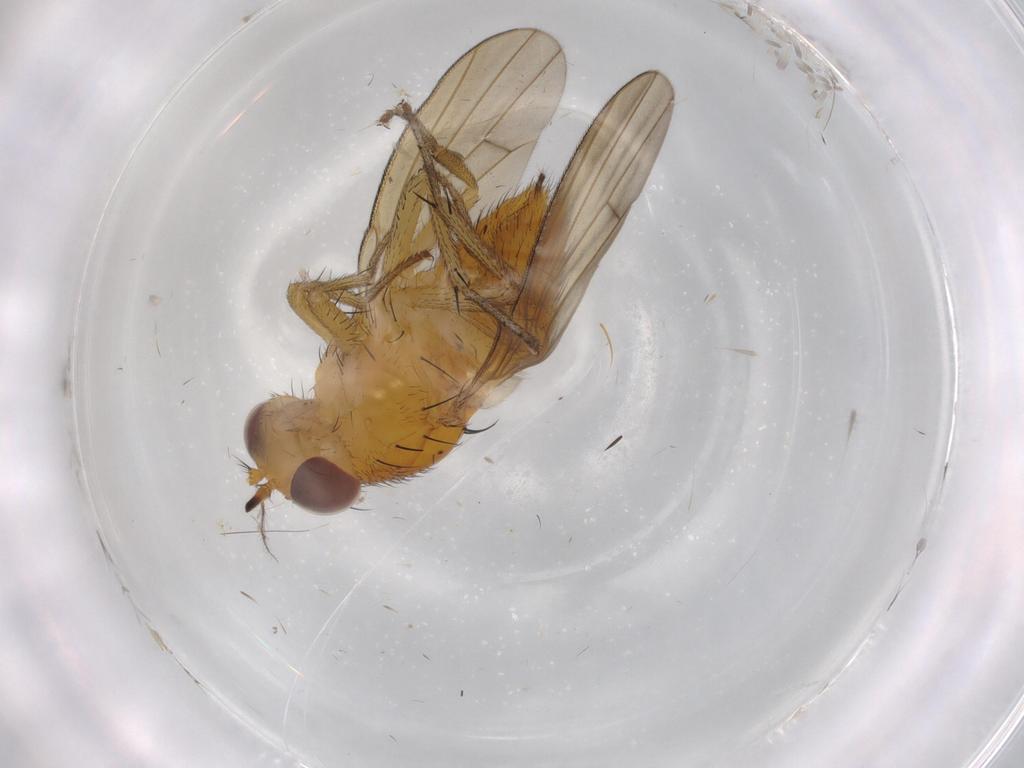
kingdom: Animalia
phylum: Arthropoda
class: Insecta
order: Diptera
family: Lauxaniidae
